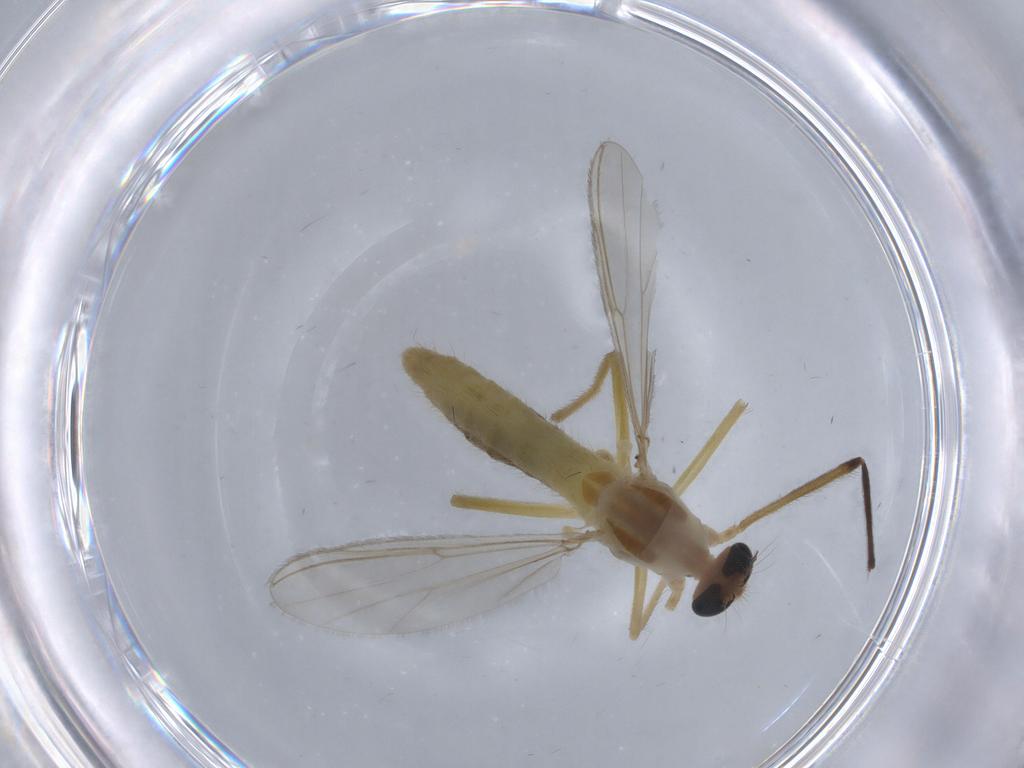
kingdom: Animalia
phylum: Arthropoda
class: Insecta
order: Diptera
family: Chironomidae
